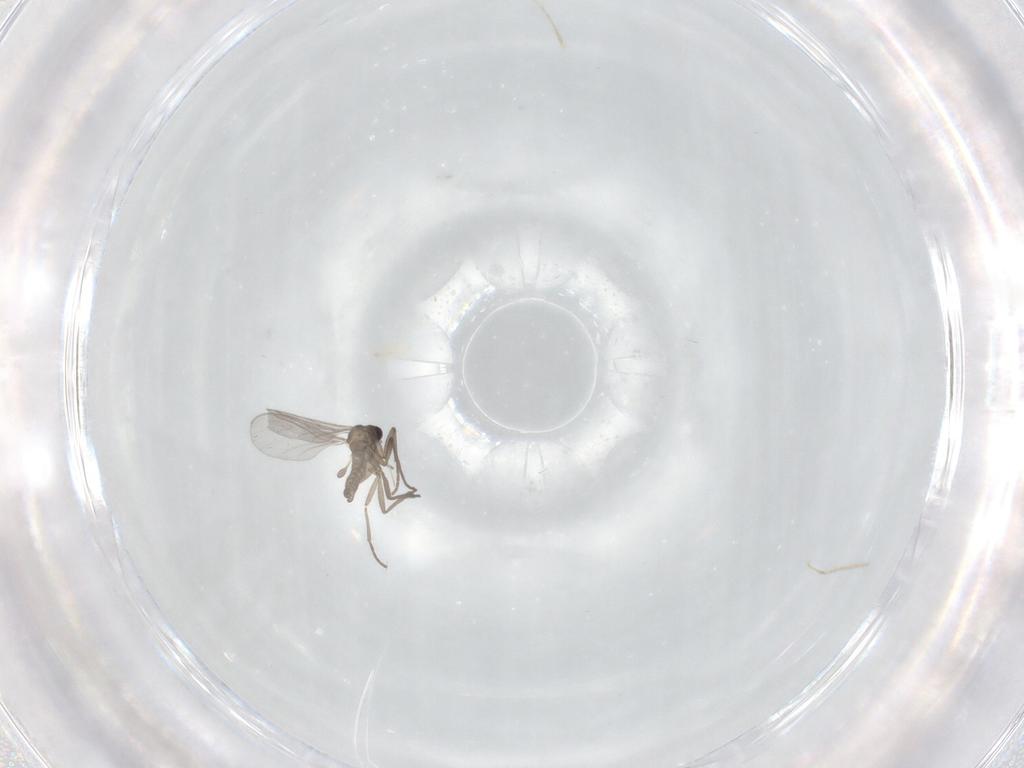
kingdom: Animalia
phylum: Arthropoda
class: Insecta
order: Diptera
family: Sciaridae
